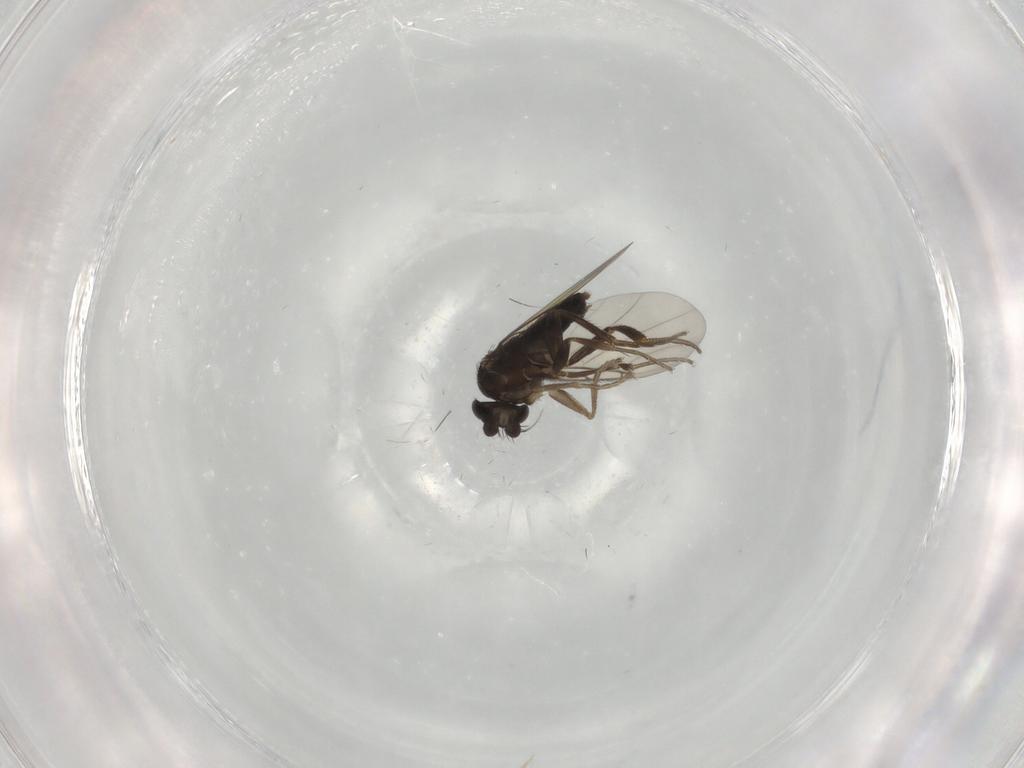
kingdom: Animalia
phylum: Arthropoda
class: Insecta
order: Diptera
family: Phoridae
